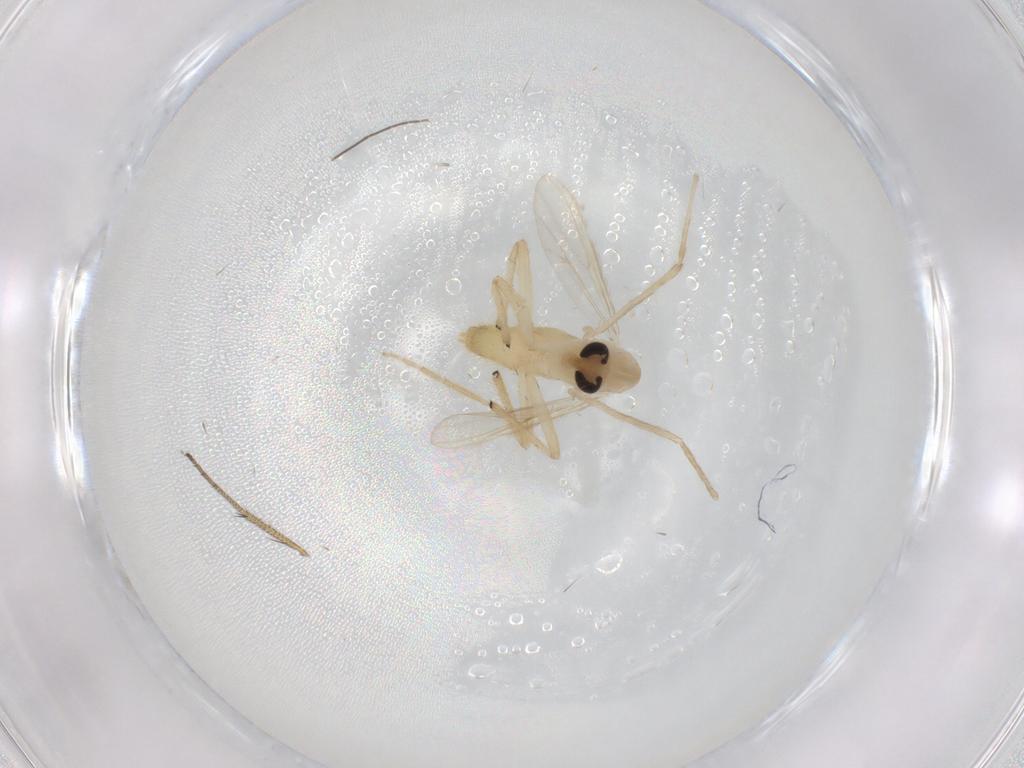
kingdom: Animalia
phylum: Arthropoda
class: Insecta
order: Diptera
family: Chironomidae
